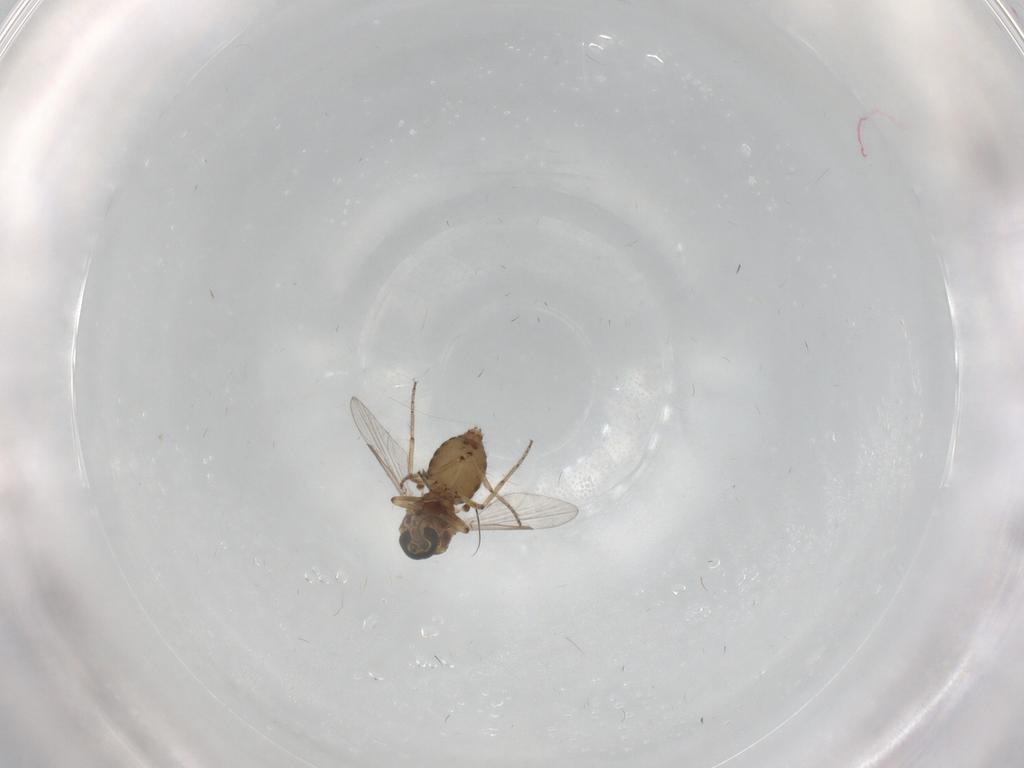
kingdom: Animalia
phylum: Arthropoda
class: Insecta
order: Diptera
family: Ceratopogonidae
